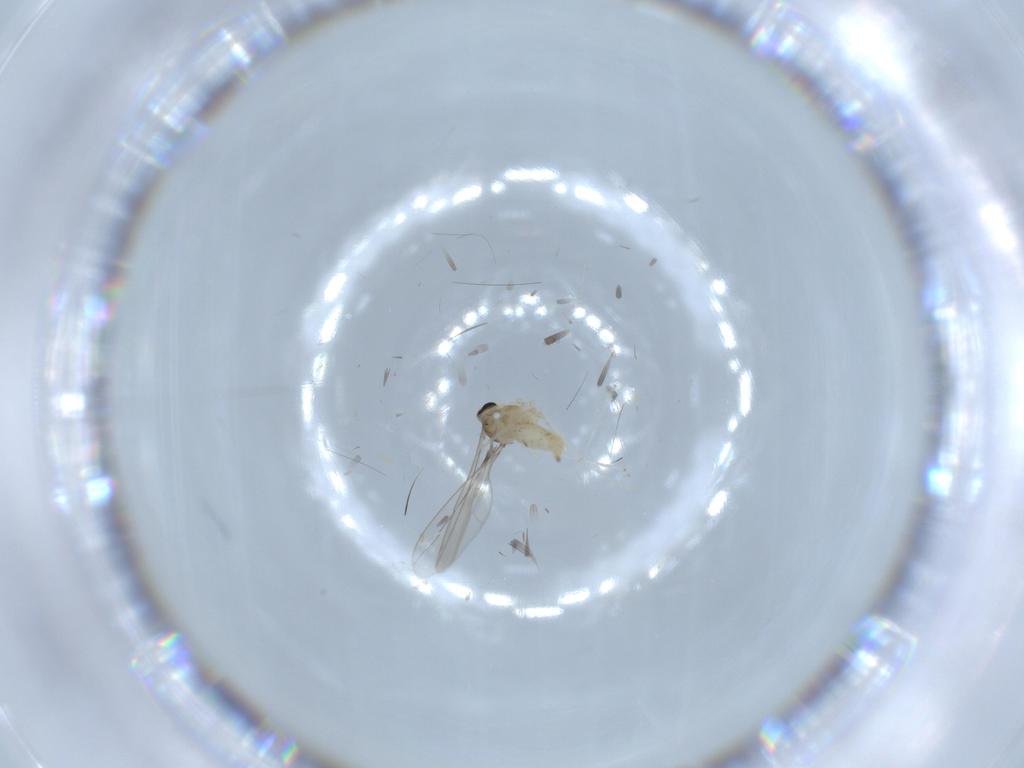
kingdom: Animalia
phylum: Arthropoda
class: Insecta
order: Diptera
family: Cecidomyiidae
